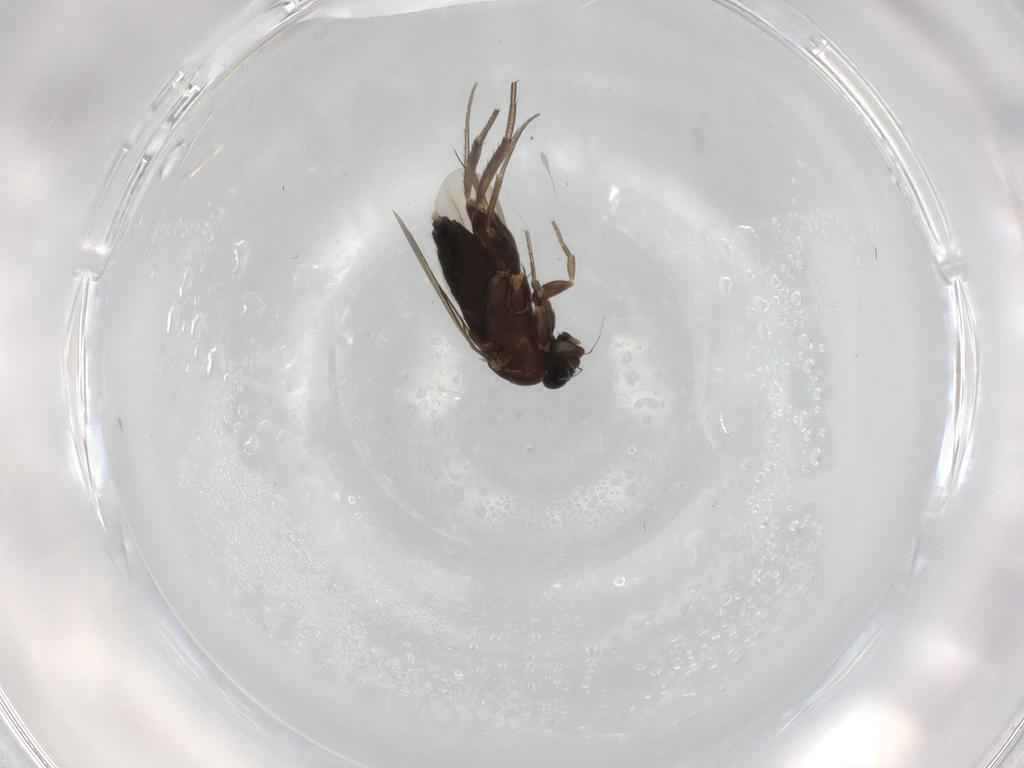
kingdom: Animalia
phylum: Arthropoda
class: Insecta
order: Diptera
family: Phoridae
